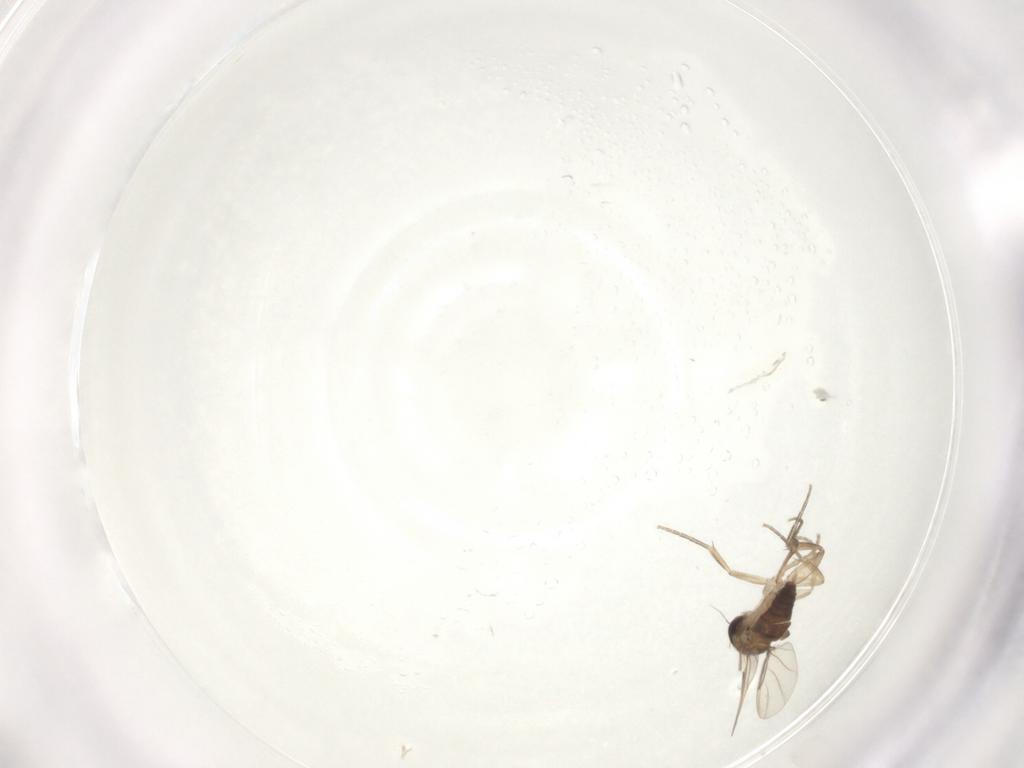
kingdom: Animalia
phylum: Arthropoda
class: Insecta
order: Diptera
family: Phoridae
